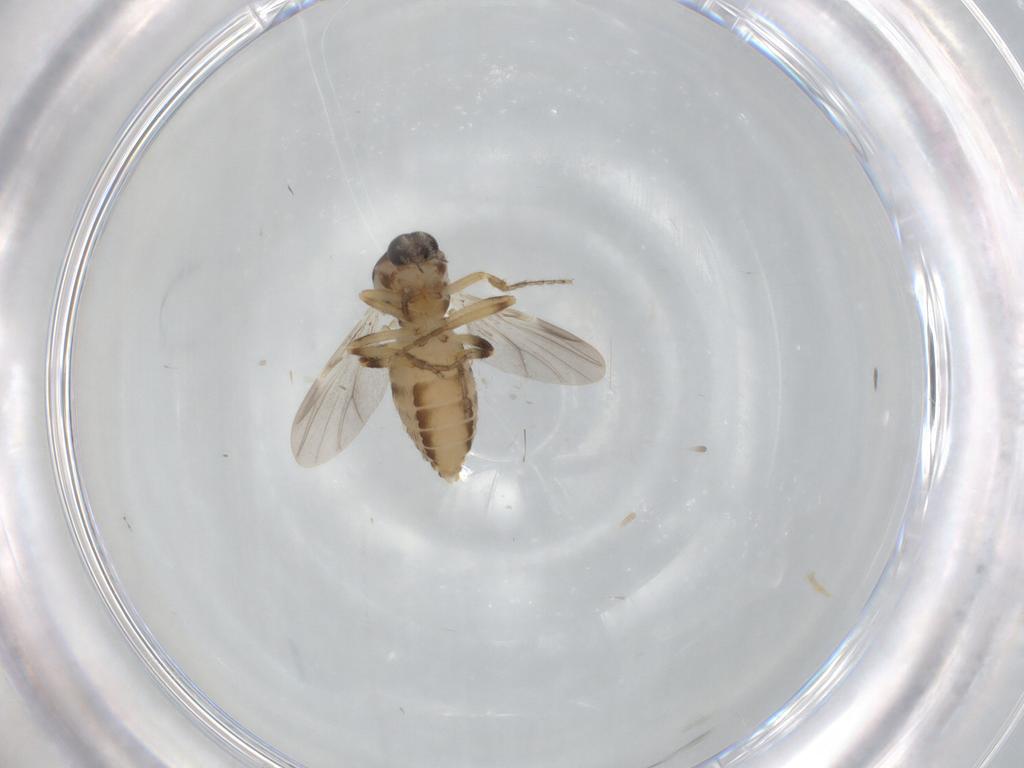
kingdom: Animalia
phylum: Arthropoda
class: Insecta
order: Diptera
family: Ceratopogonidae
